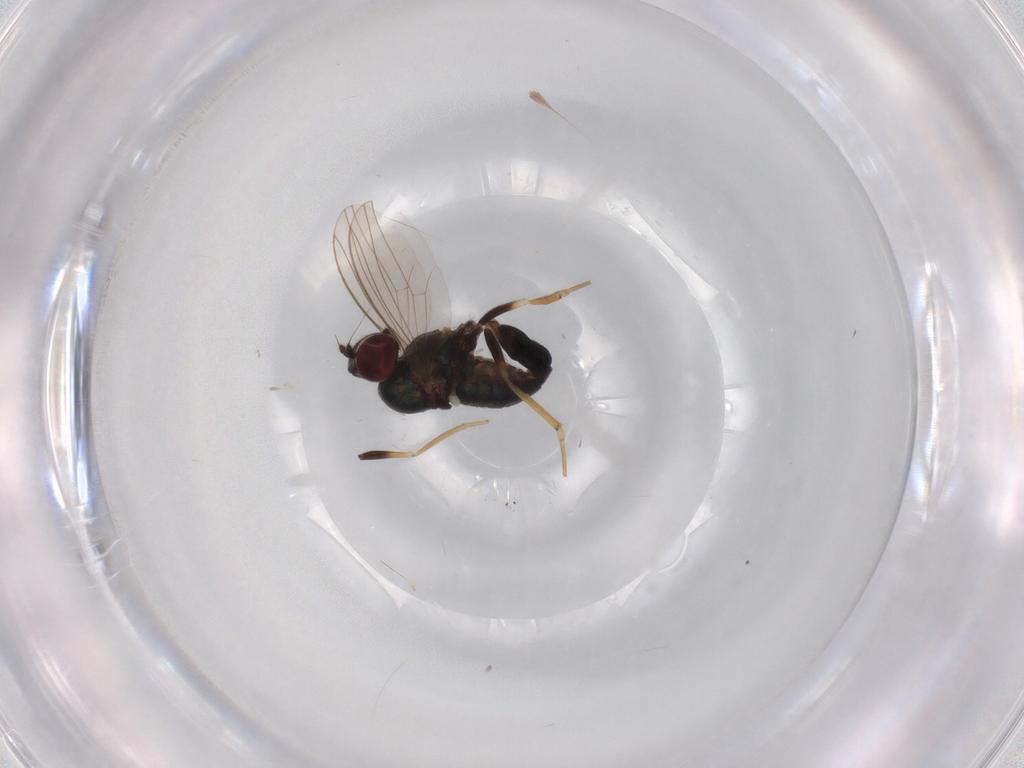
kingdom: Animalia
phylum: Arthropoda
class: Insecta
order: Diptera
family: Dolichopodidae
